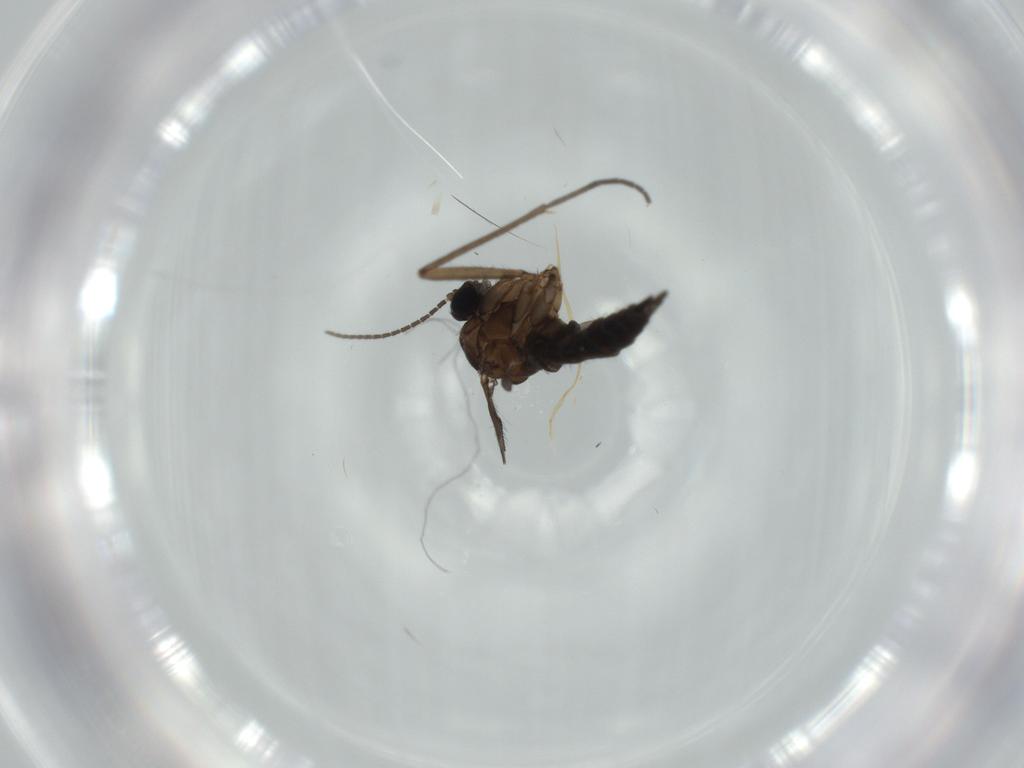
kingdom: Animalia
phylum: Arthropoda
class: Insecta
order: Diptera
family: Sciaridae
